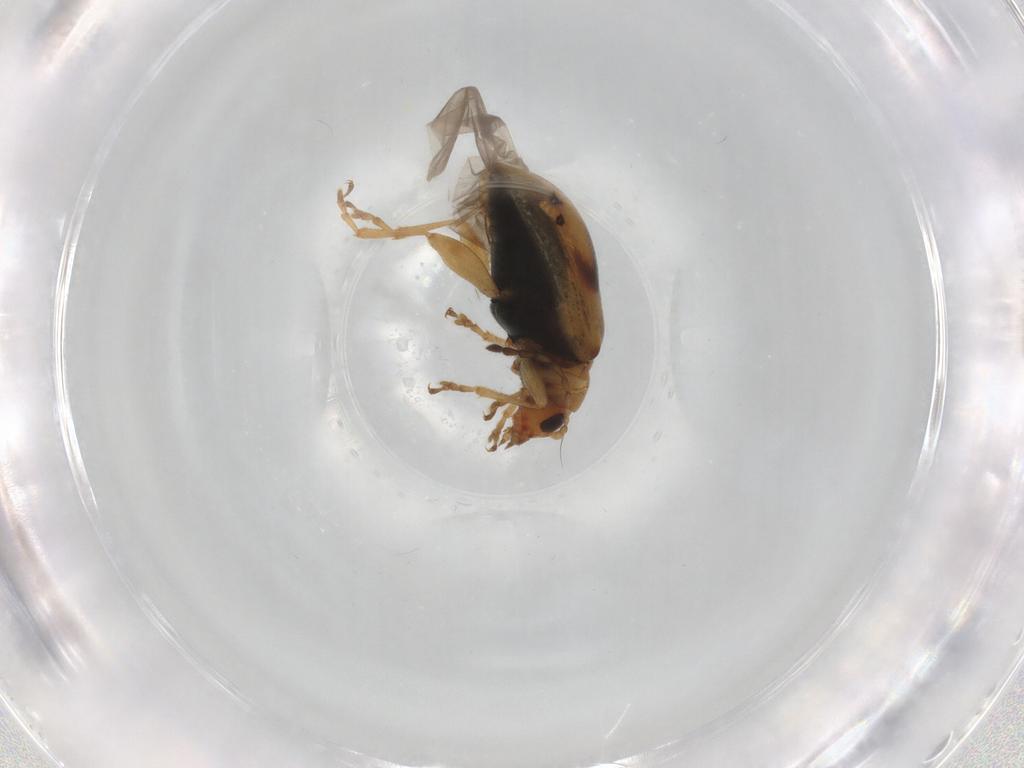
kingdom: Animalia
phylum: Arthropoda
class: Insecta
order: Coleoptera
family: Chrysomelidae
